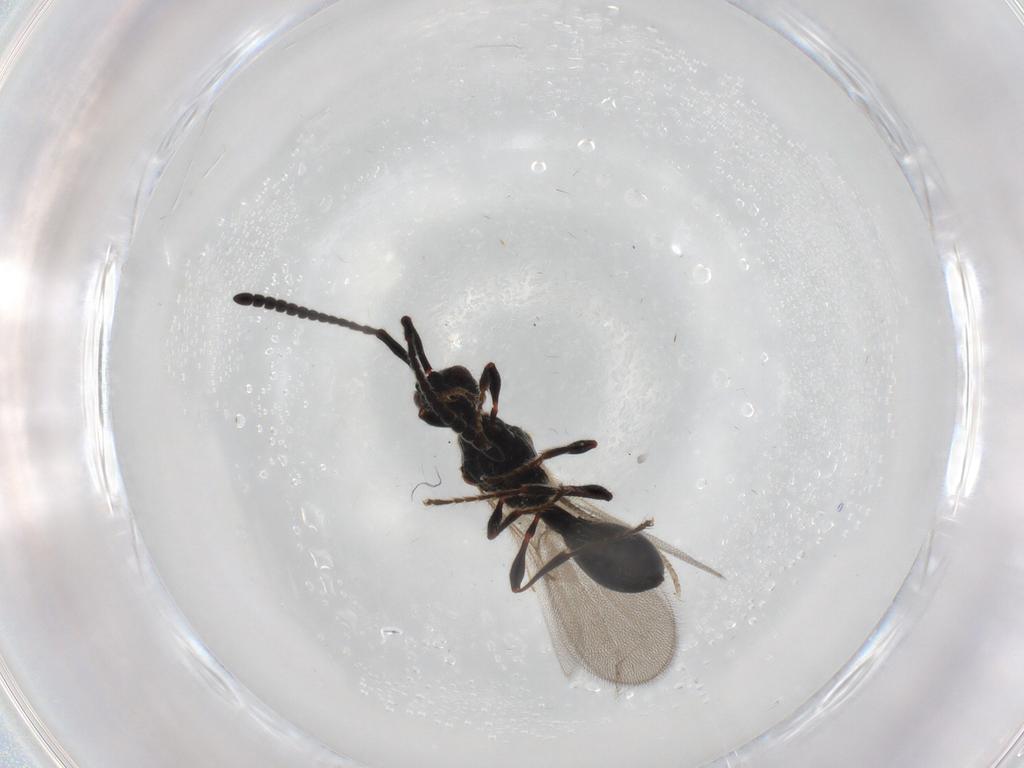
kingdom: Animalia
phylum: Arthropoda
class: Insecta
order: Hymenoptera
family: Diapriidae
